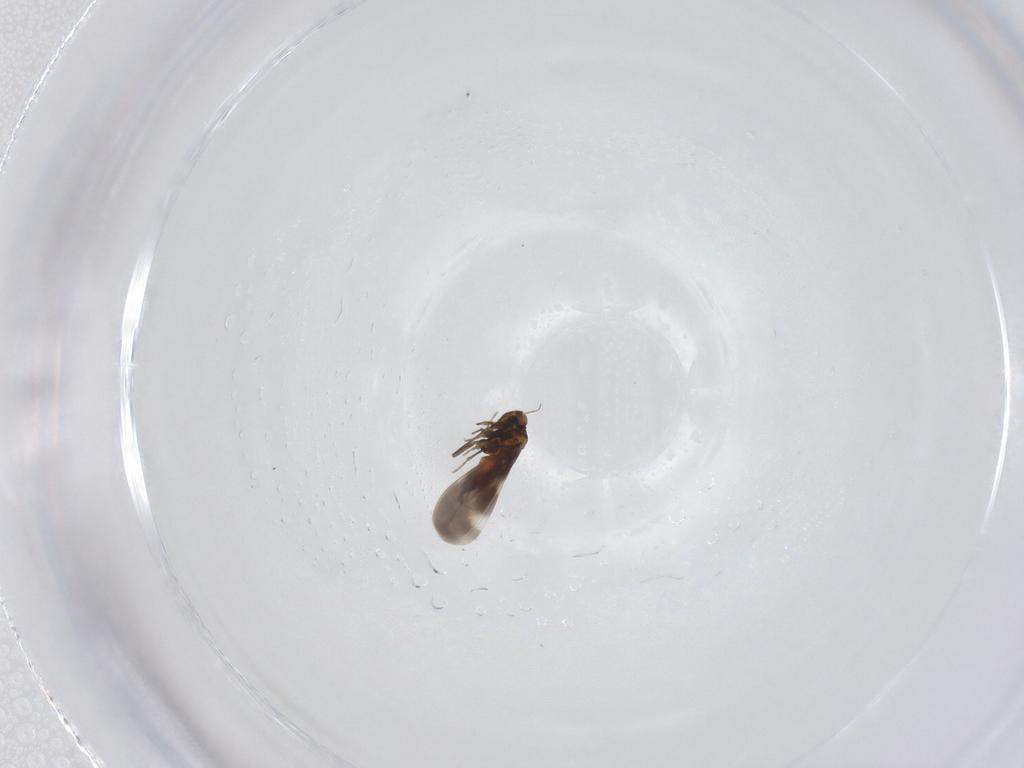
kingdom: Animalia
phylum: Arthropoda
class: Insecta
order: Hemiptera
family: Aleyrodidae
